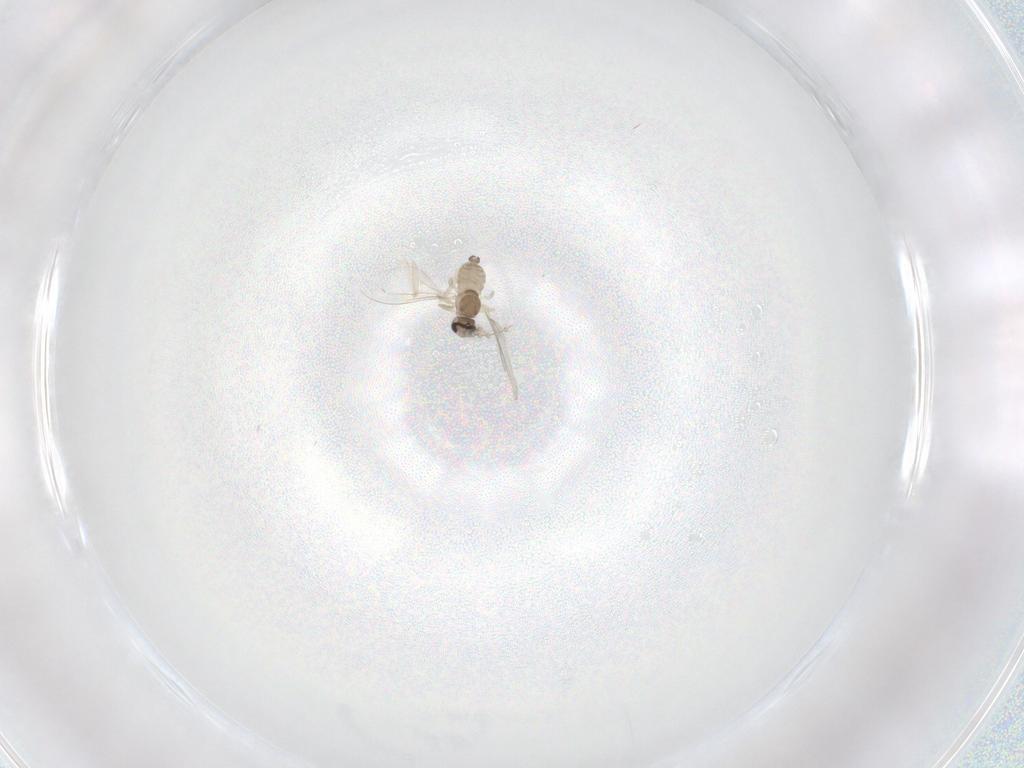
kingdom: Animalia
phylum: Arthropoda
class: Insecta
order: Diptera
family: Cecidomyiidae
